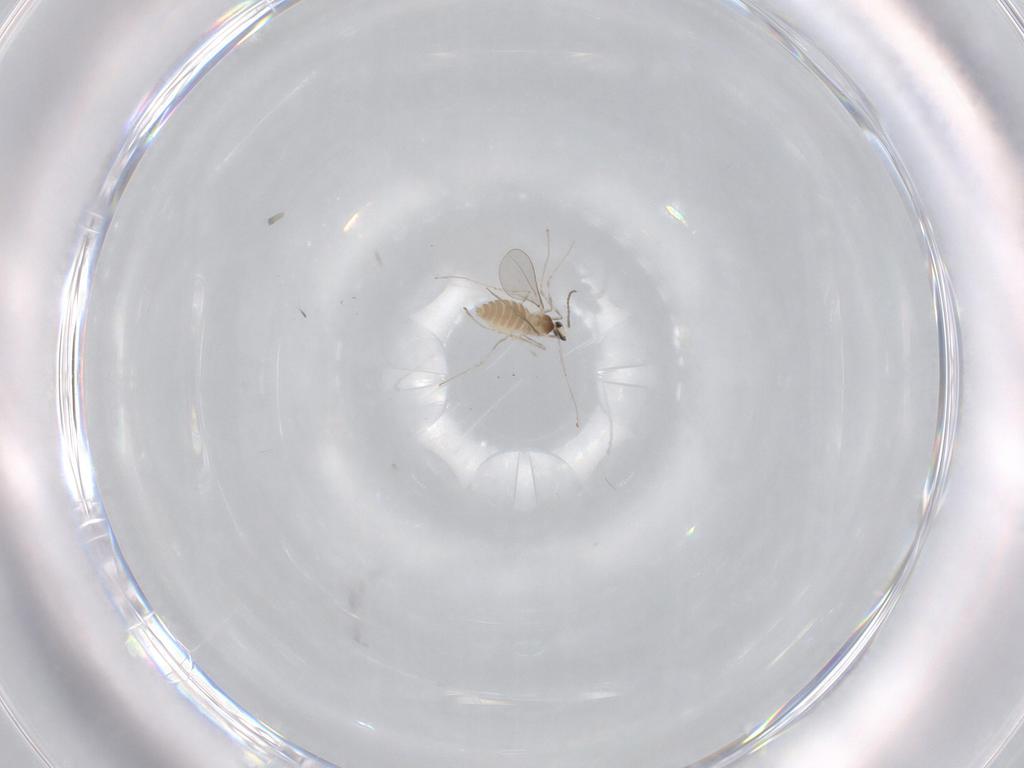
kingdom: Animalia
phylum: Arthropoda
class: Insecta
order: Diptera
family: Cecidomyiidae
